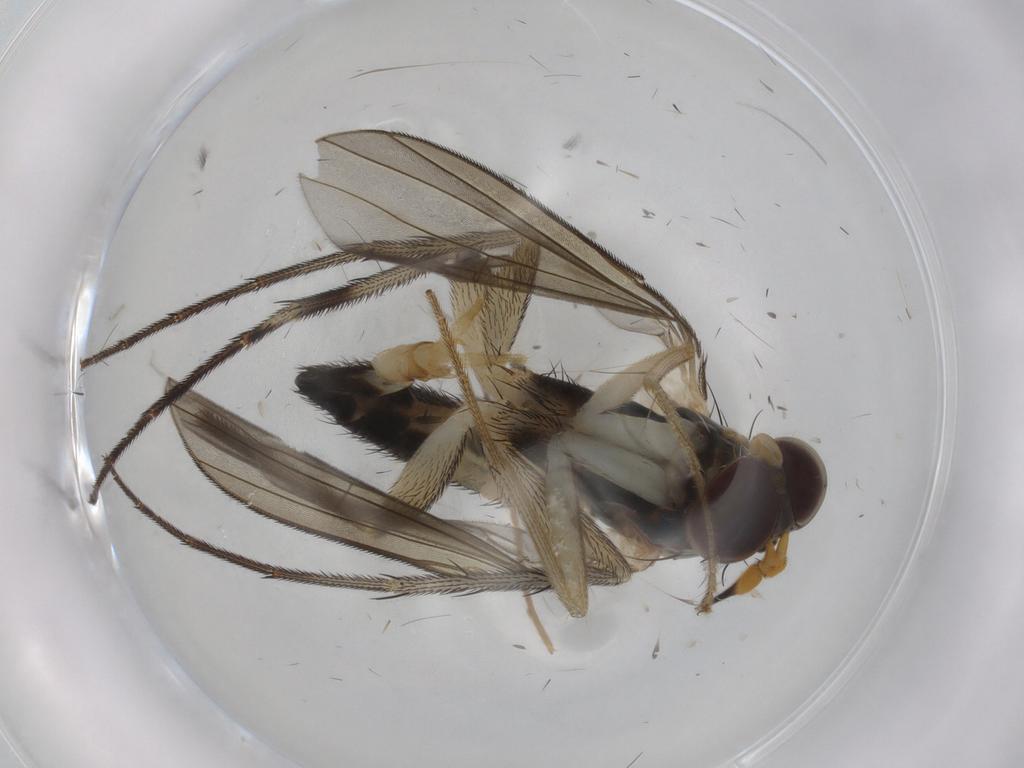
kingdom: Animalia
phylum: Arthropoda
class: Insecta
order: Diptera
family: Dolichopodidae
